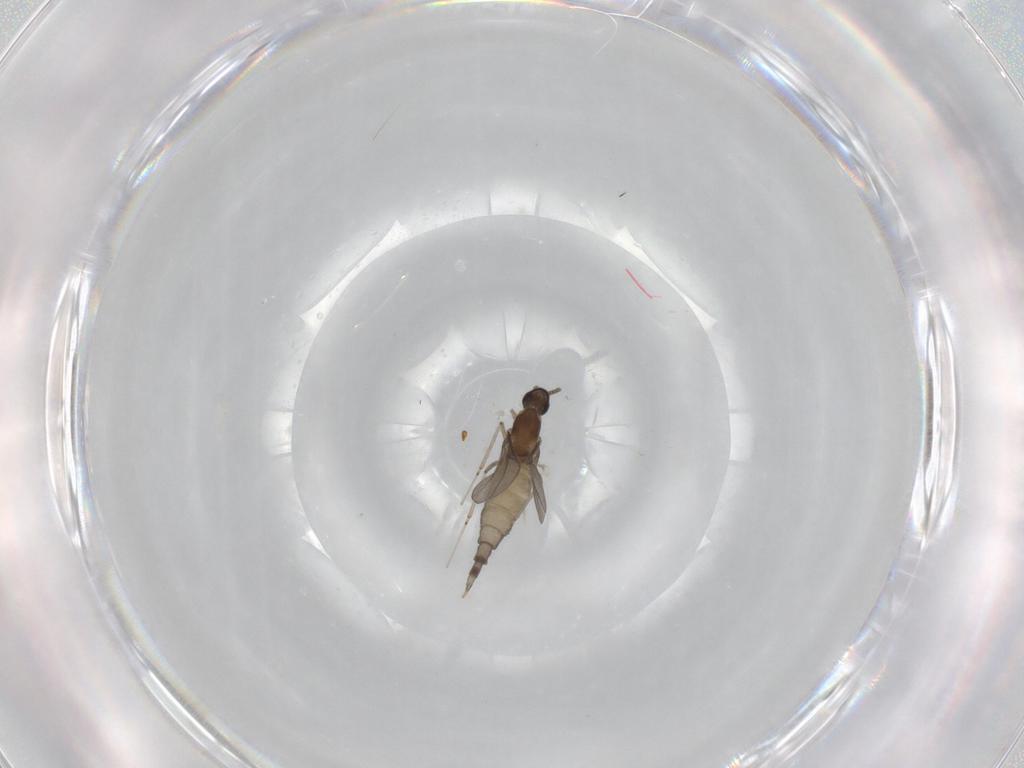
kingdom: Animalia
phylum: Arthropoda
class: Insecta
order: Diptera
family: Cecidomyiidae
